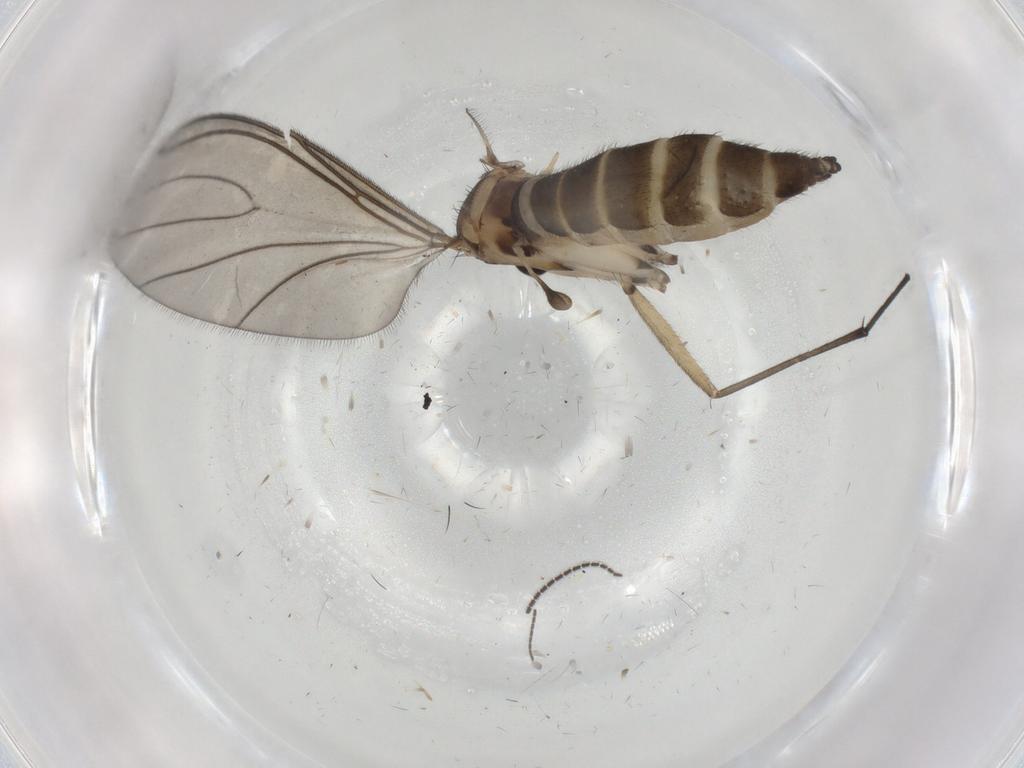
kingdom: Animalia
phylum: Arthropoda
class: Insecta
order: Diptera
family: Sciaridae
